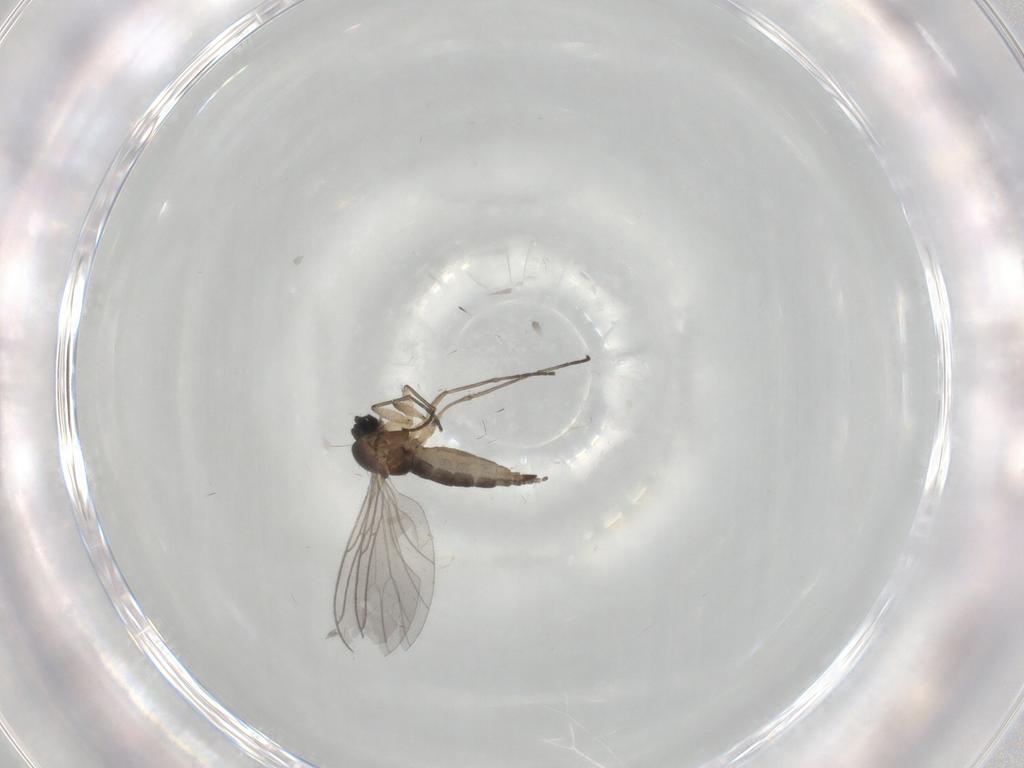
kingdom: Animalia
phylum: Arthropoda
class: Insecta
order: Diptera
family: Sciaridae
